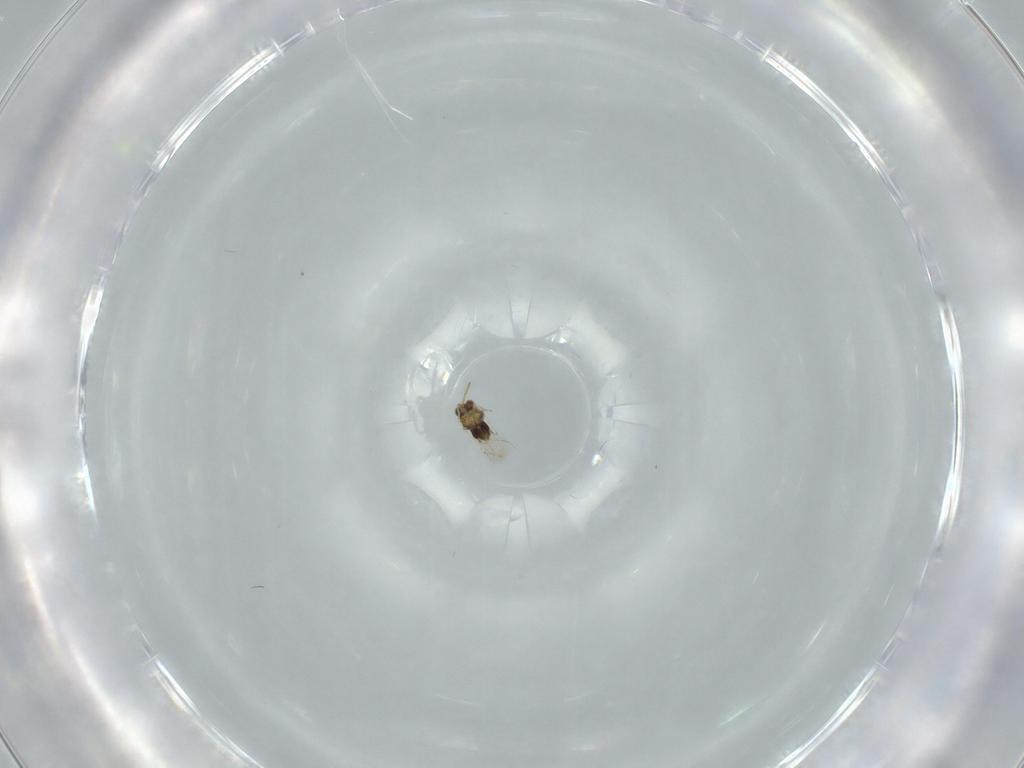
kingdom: Animalia
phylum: Arthropoda
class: Insecta
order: Hymenoptera
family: Aphelinidae
